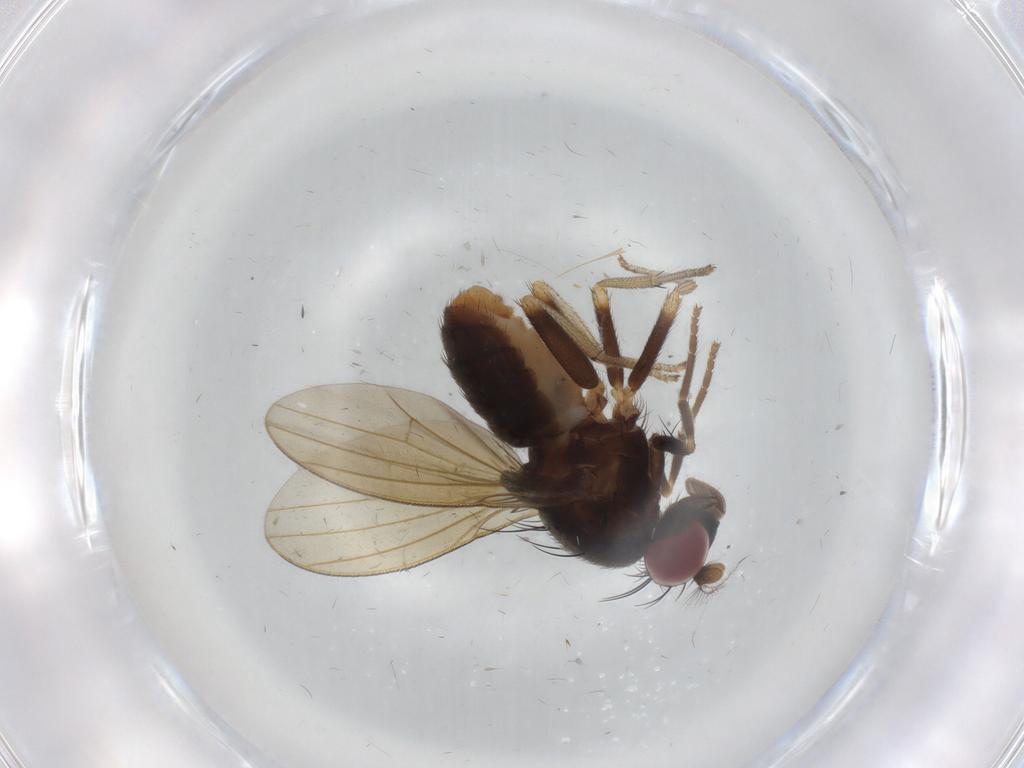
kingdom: Animalia
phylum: Arthropoda
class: Insecta
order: Diptera
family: Lauxaniidae
